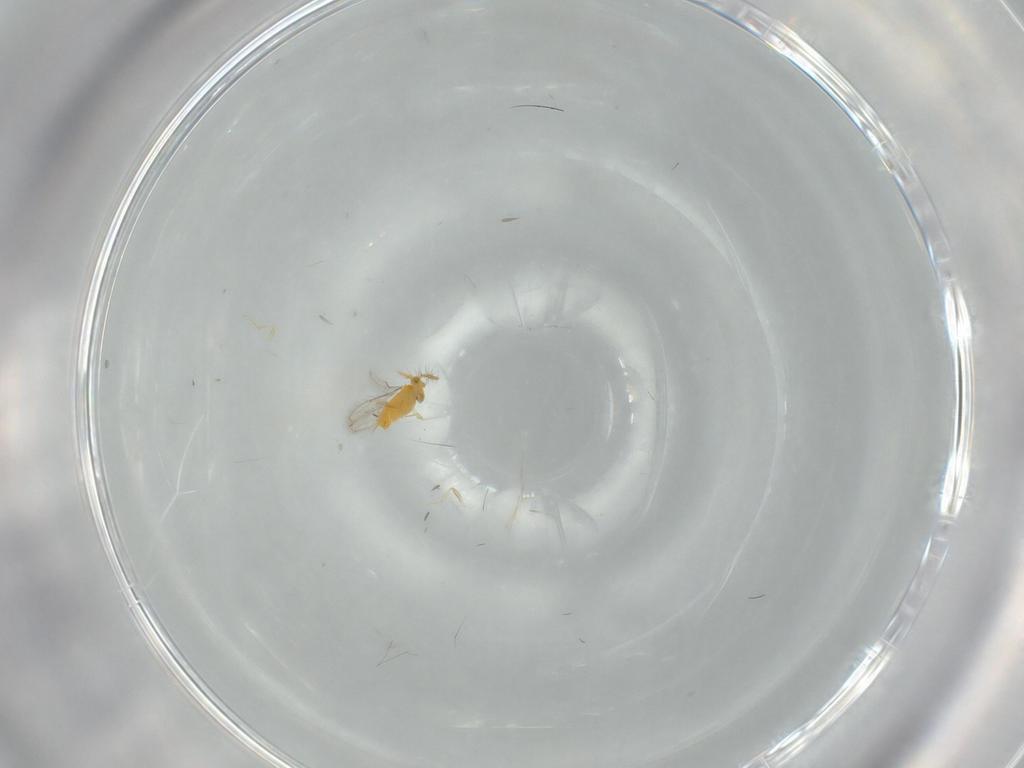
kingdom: Animalia
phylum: Arthropoda
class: Insecta
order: Hymenoptera
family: Aphelinidae
